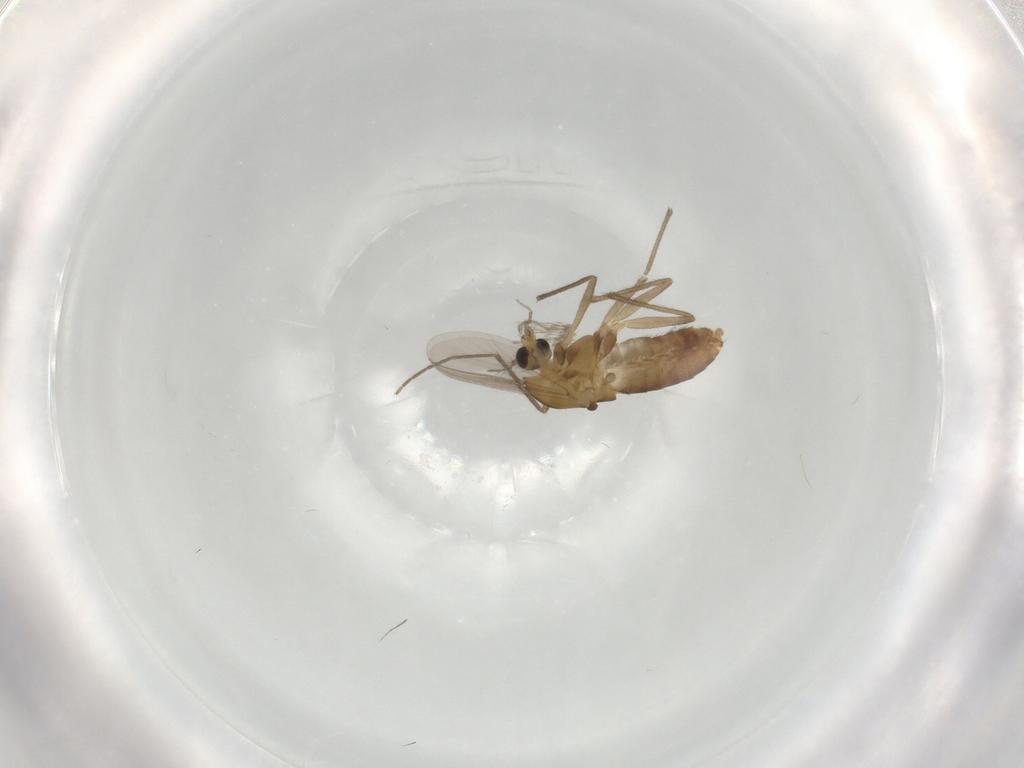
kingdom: Animalia
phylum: Arthropoda
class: Insecta
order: Diptera
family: Chironomidae
